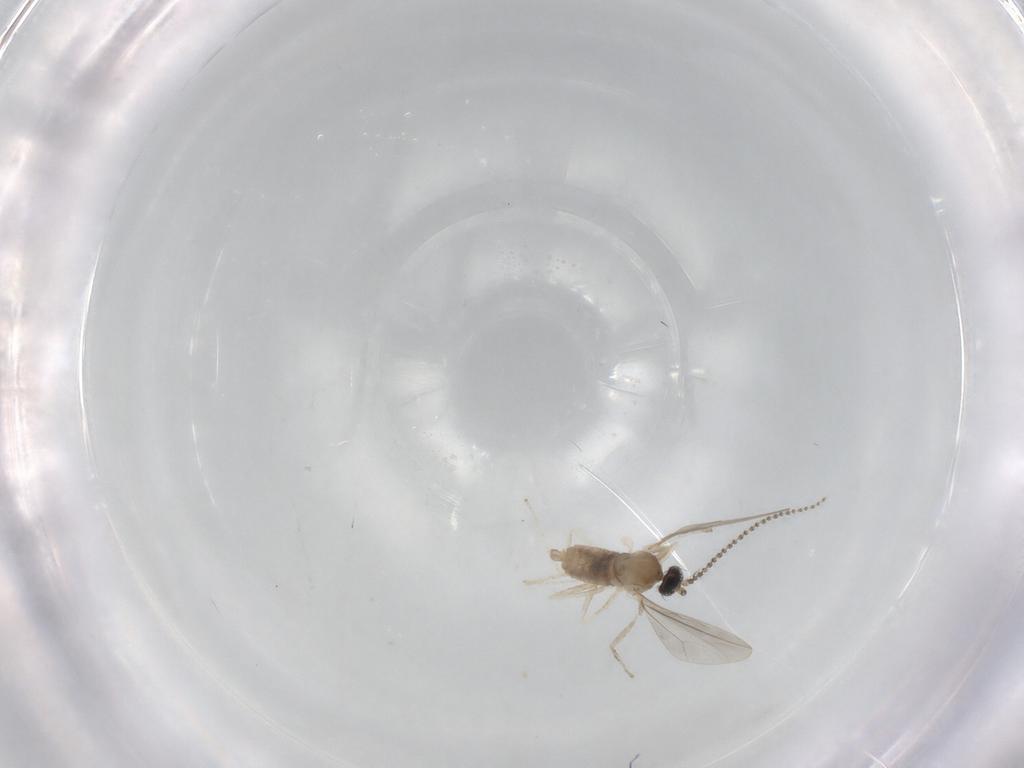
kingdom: Animalia
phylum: Arthropoda
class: Insecta
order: Diptera
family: Cecidomyiidae
